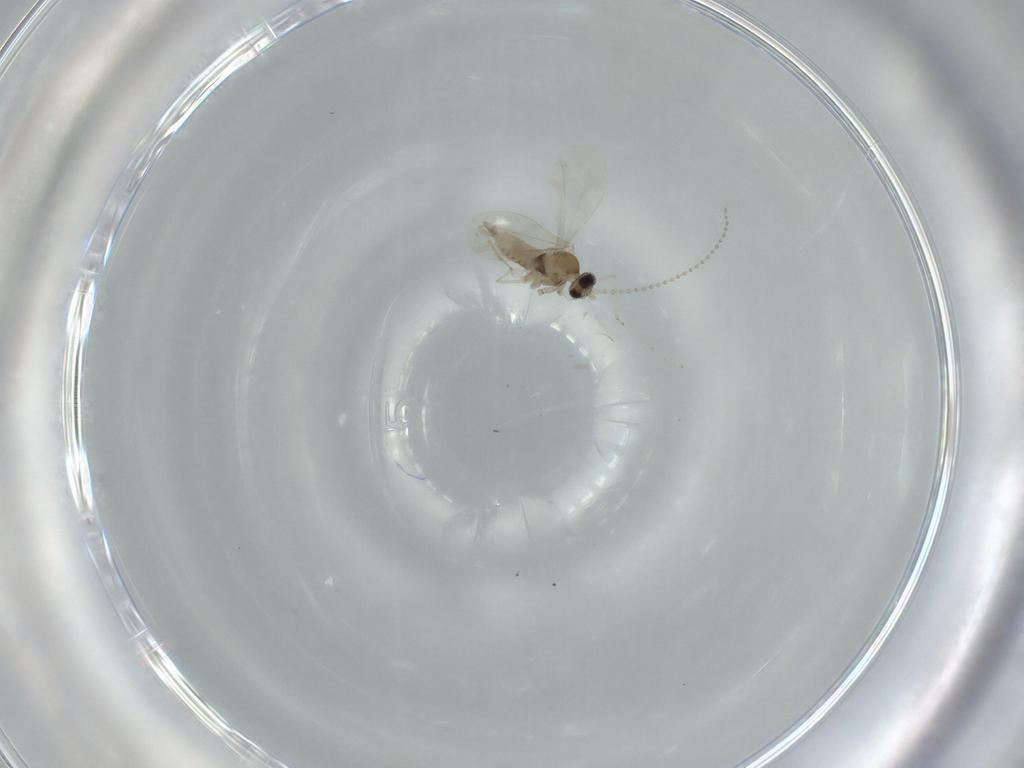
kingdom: Animalia
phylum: Arthropoda
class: Insecta
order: Diptera
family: Cecidomyiidae
